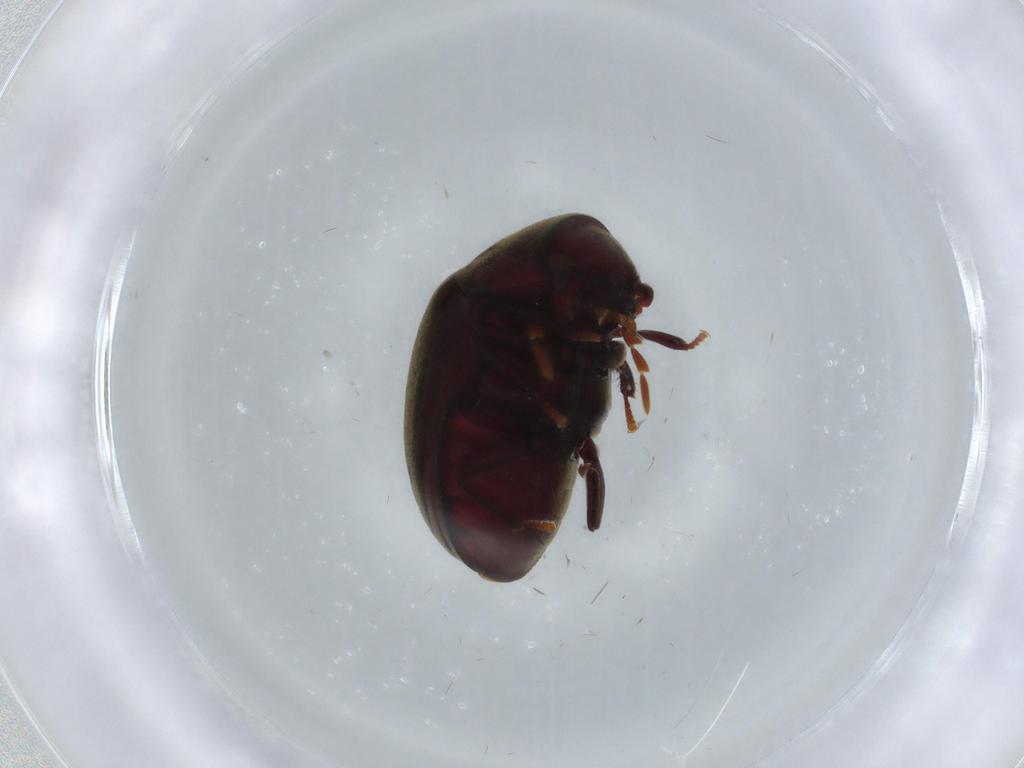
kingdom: Animalia
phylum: Arthropoda
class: Insecta
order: Coleoptera
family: Chrysomelidae
